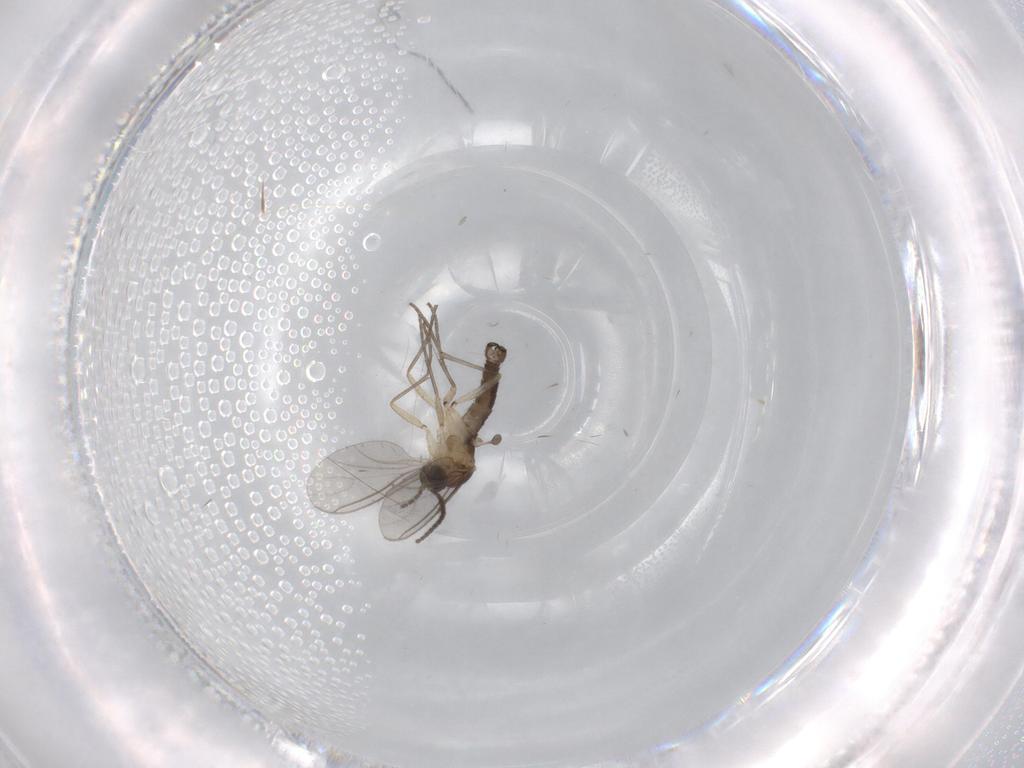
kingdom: Animalia
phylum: Arthropoda
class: Insecta
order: Diptera
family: Sciaridae
